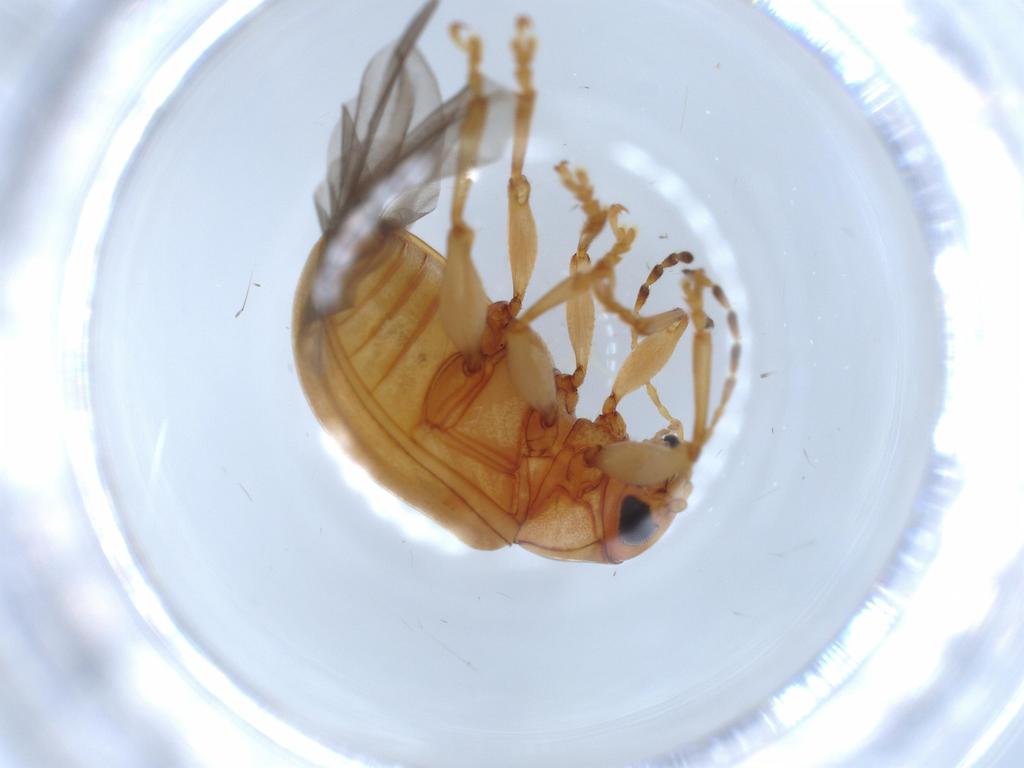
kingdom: Animalia
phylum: Arthropoda
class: Insecta
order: Coleoptera
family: Chrysomelidae
